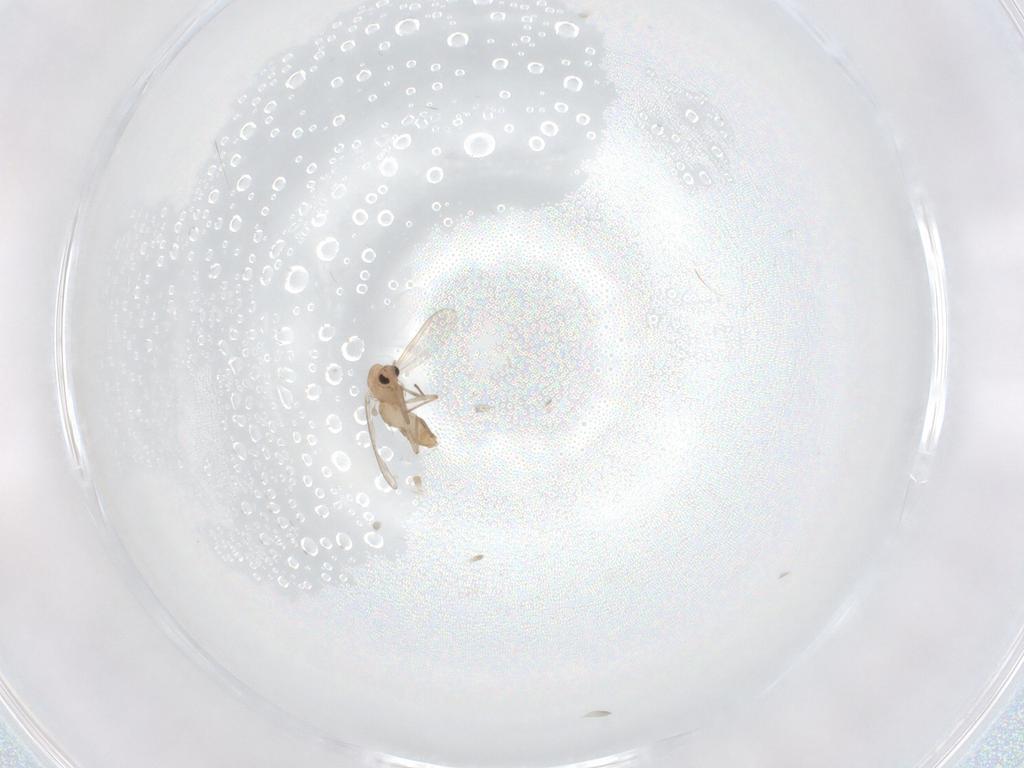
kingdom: Animalia
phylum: Arthropoda
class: Insecta
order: Diptera
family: Chironomidae
